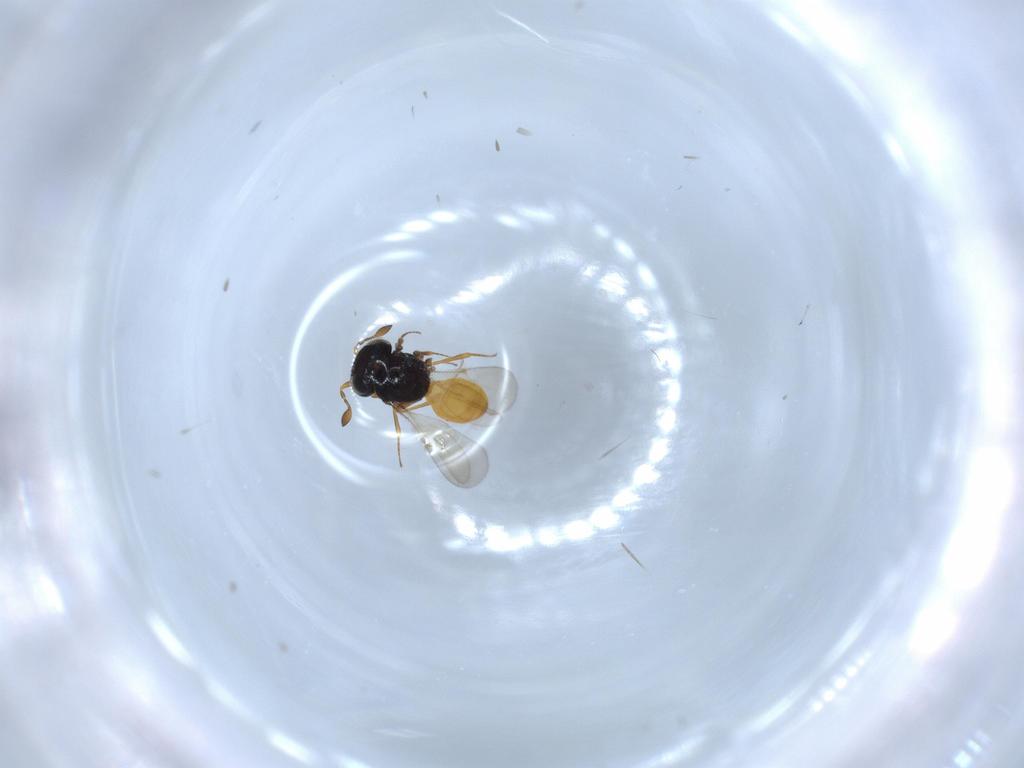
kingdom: Animalia
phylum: Arthropoda
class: Insecta
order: Hymenoptera
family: Scelionidae
